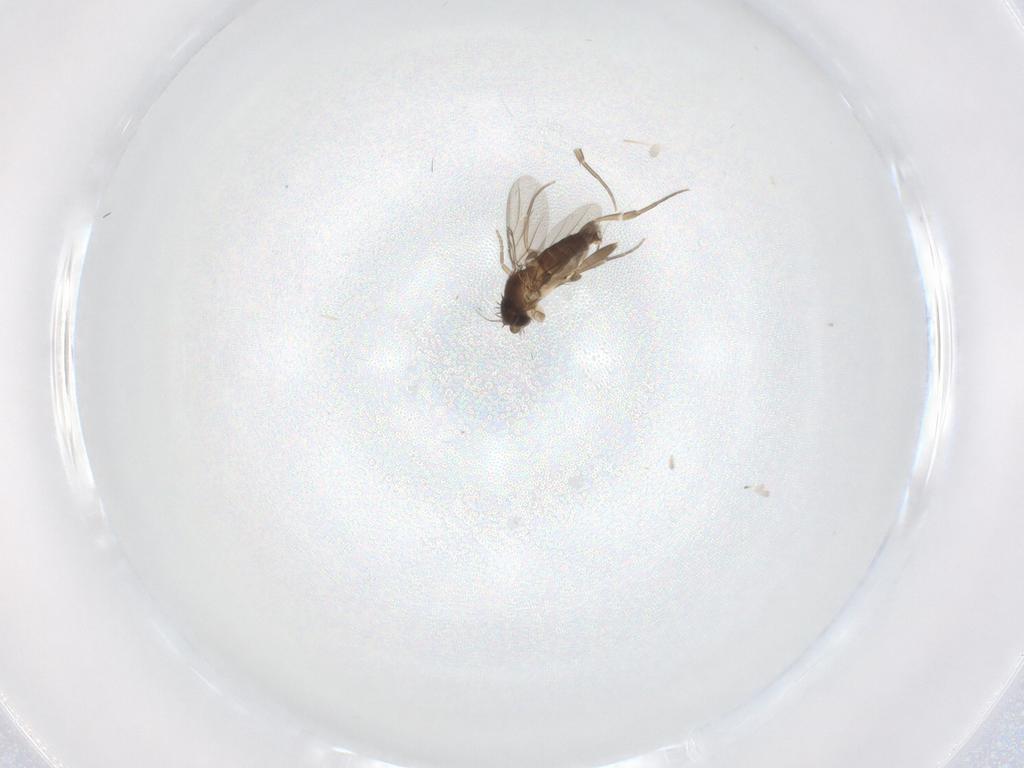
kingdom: Animalia
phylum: Arthropoda
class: Insecta
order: Diptera
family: Phoridae
